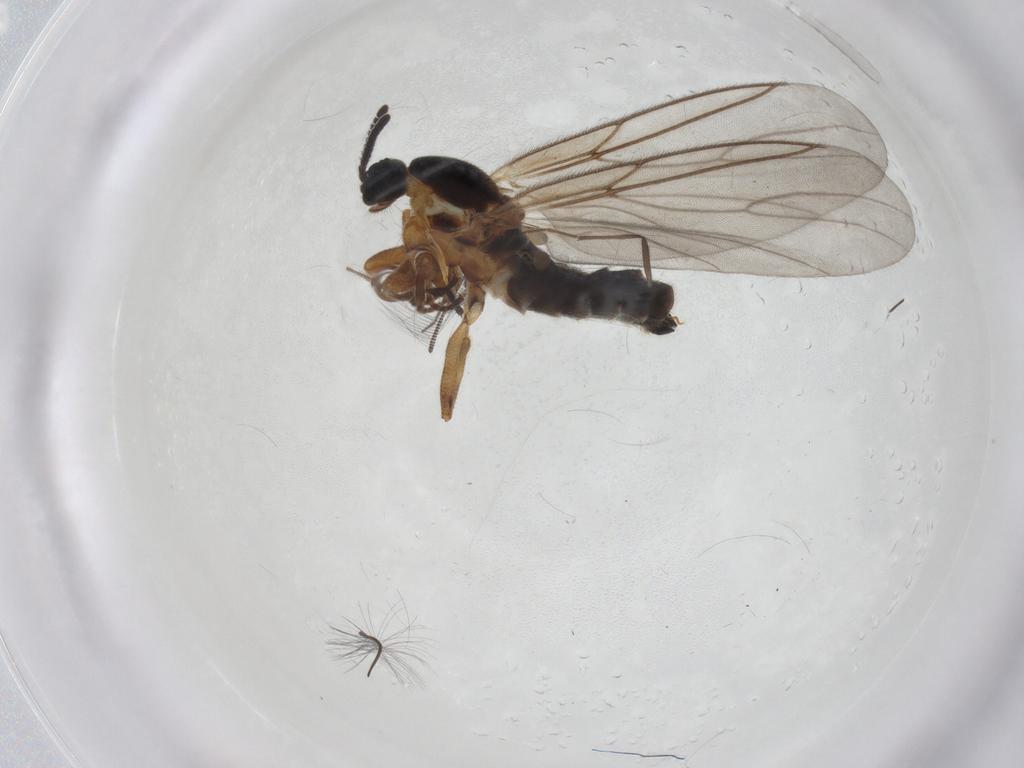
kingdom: Animalia
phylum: Arthropoda
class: Insecta
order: Diptera
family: Scatopsidae
